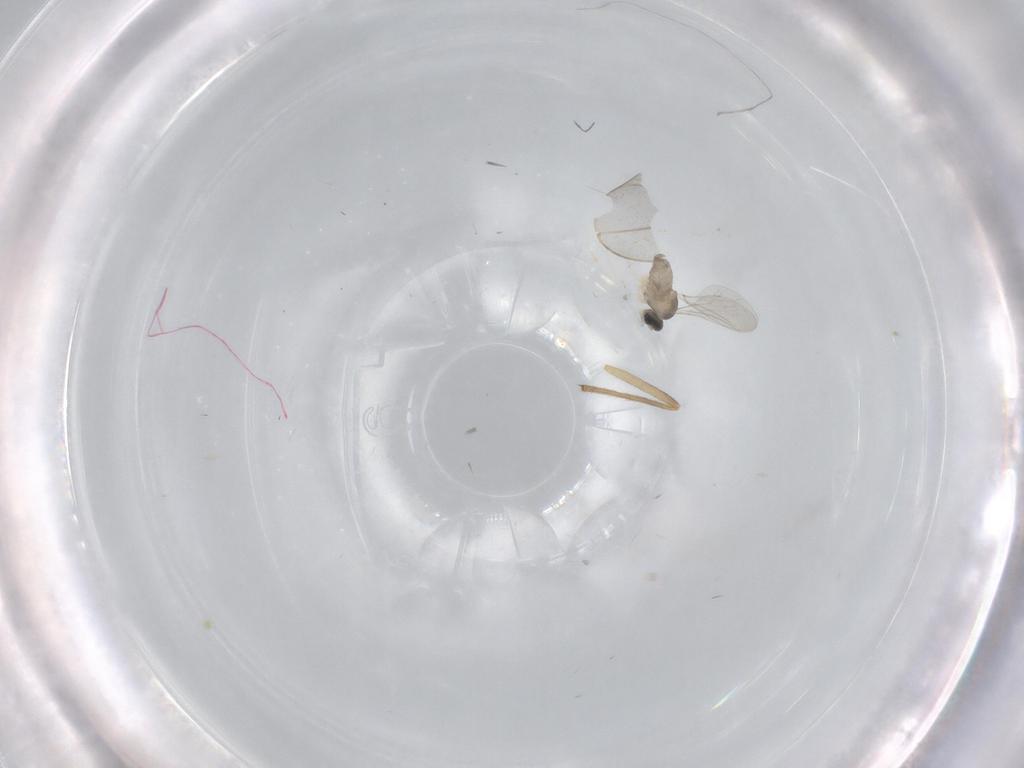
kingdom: Animalia
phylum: Arthropoda
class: Insecta
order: Diptera
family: Cecidomyiidae
